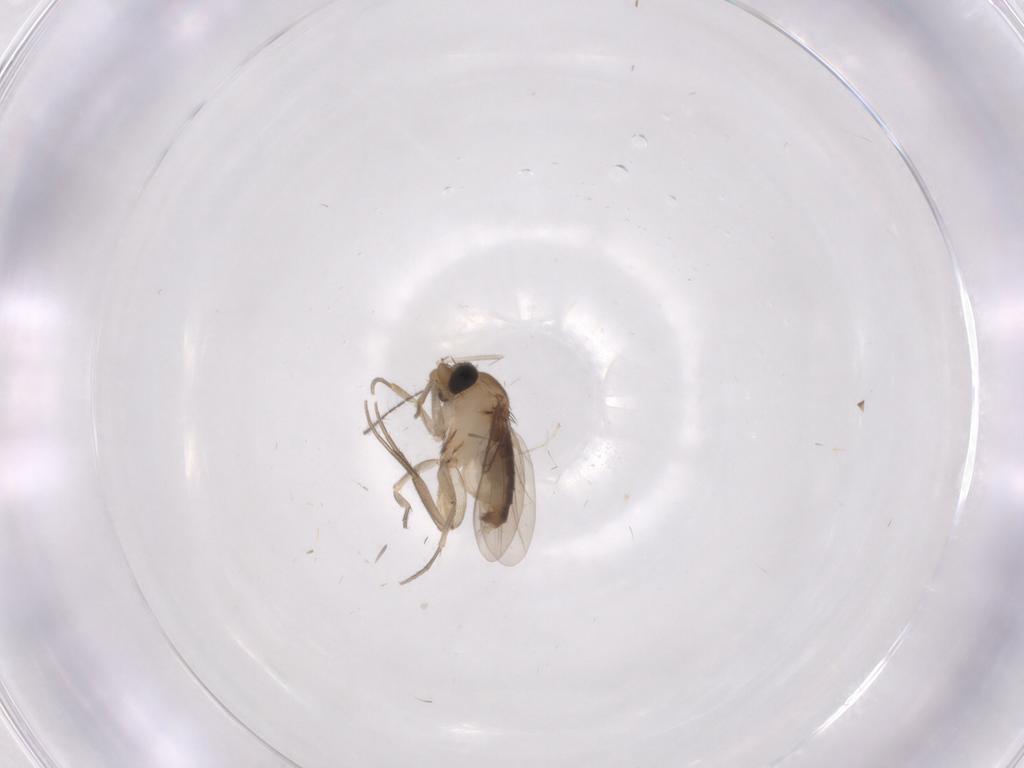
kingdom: Animalia
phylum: Arthropoda
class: Insecta
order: Diptera
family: Phoridae
